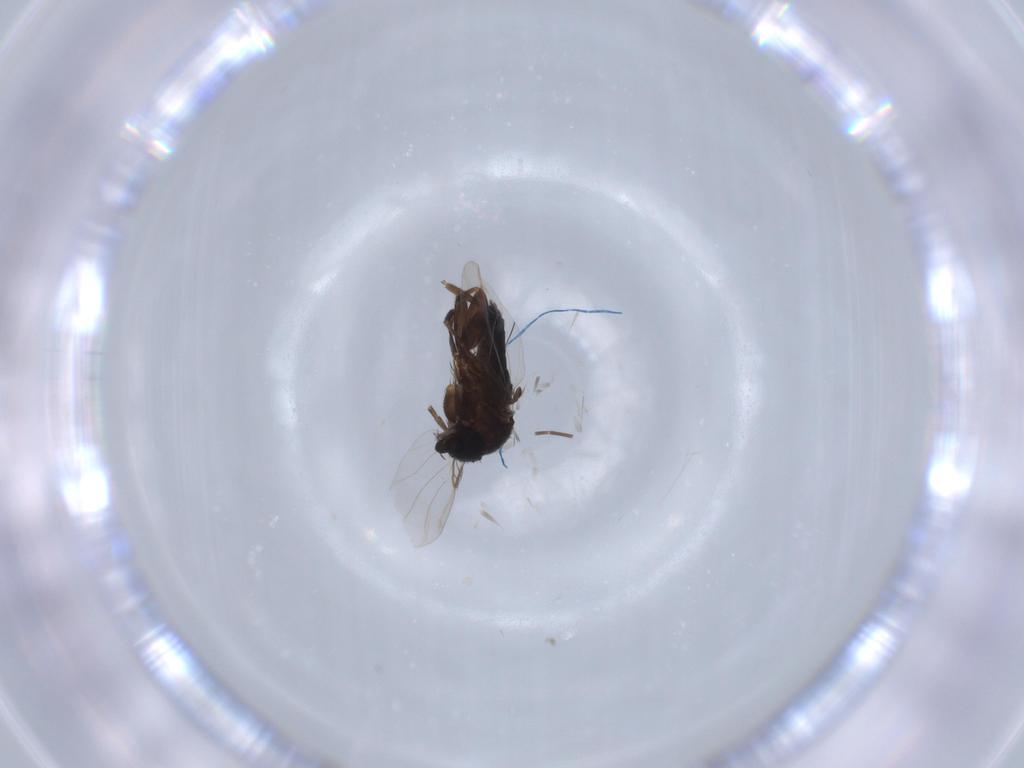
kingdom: Animalia
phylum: Arthropoda
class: Insecta
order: Diptera
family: Phoridae
